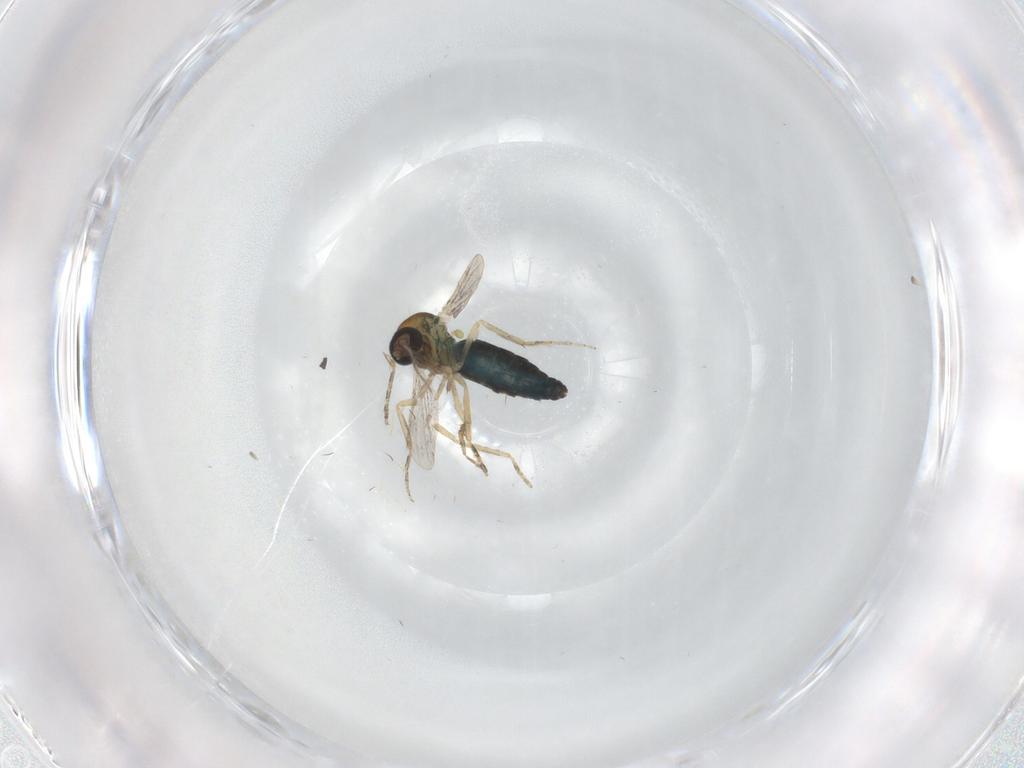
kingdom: Animalia
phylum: Arthropoda
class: Insecta
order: Diptera
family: Ceratopogonidae
